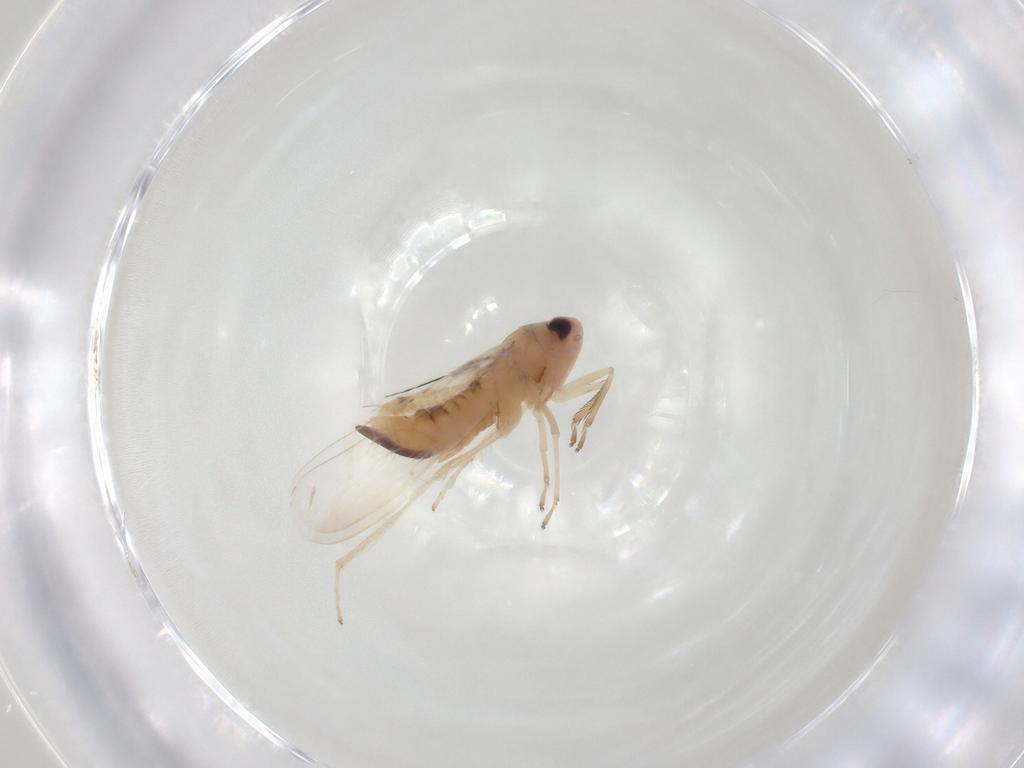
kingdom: Animalia
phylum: Arthropoda
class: Insecta
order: Hemiptera
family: Cicadellidae
